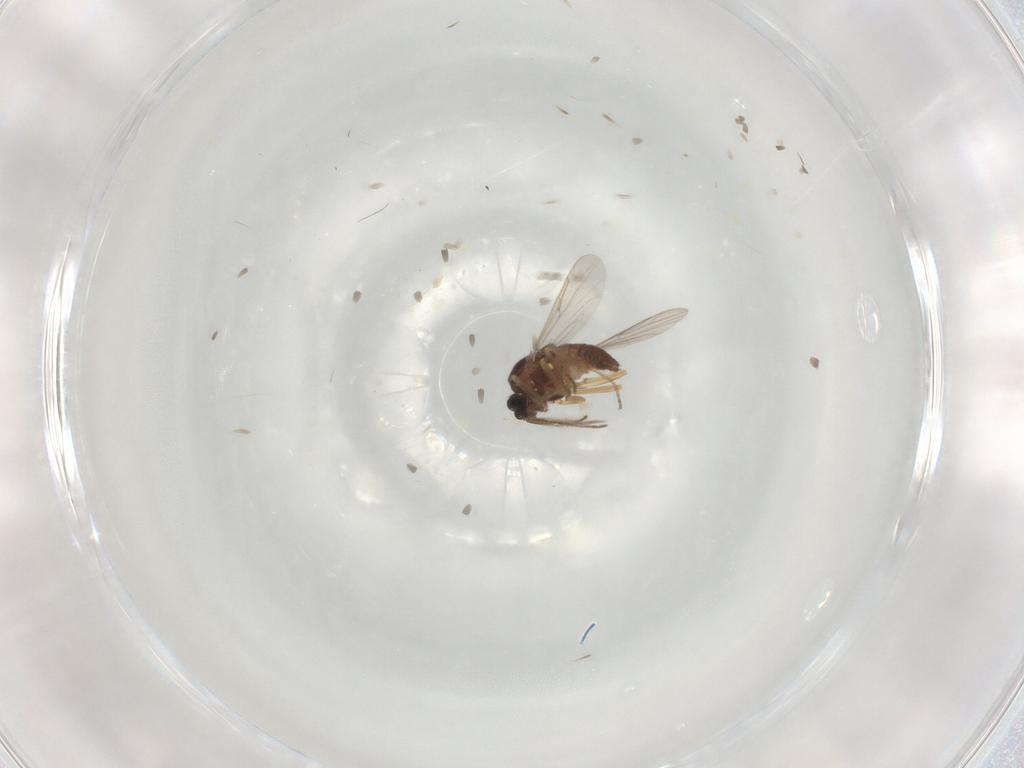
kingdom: Animalia
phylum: Arthropoda
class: Insecta
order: Diptera
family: Ceratopogonidae
